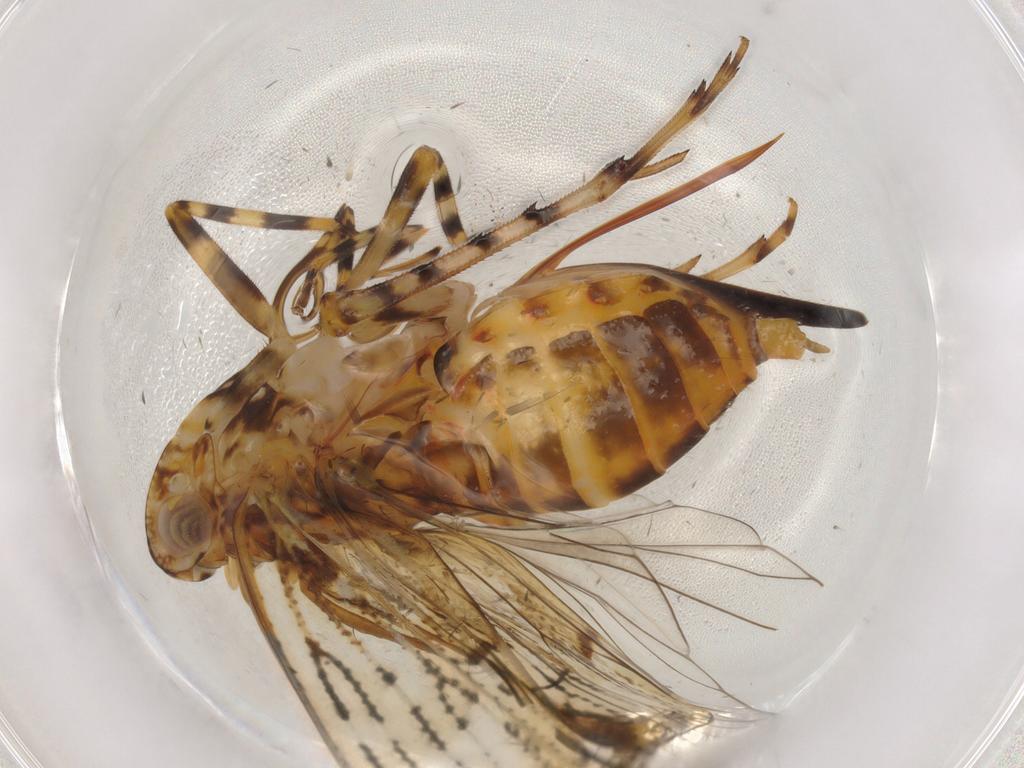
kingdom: Animalia
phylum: Arthropoda
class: Insecta
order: Hemiptera
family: Delphacidae
